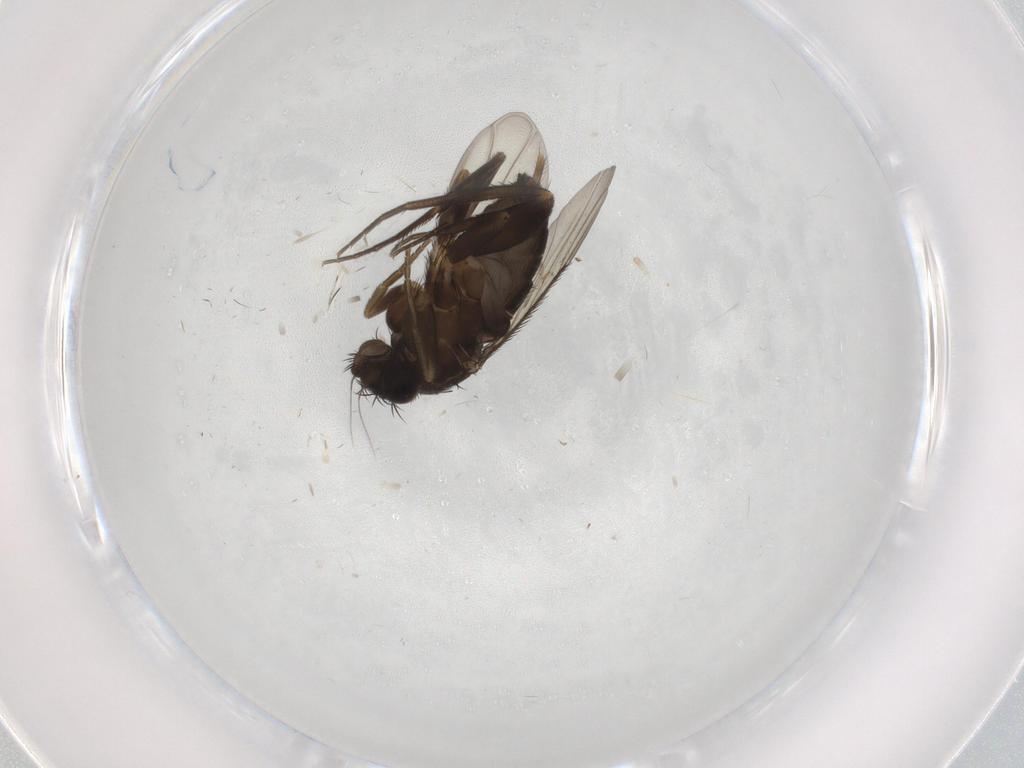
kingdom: Animalia
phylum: Arthropoda
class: Insecta
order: Diptera
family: Phoridae
